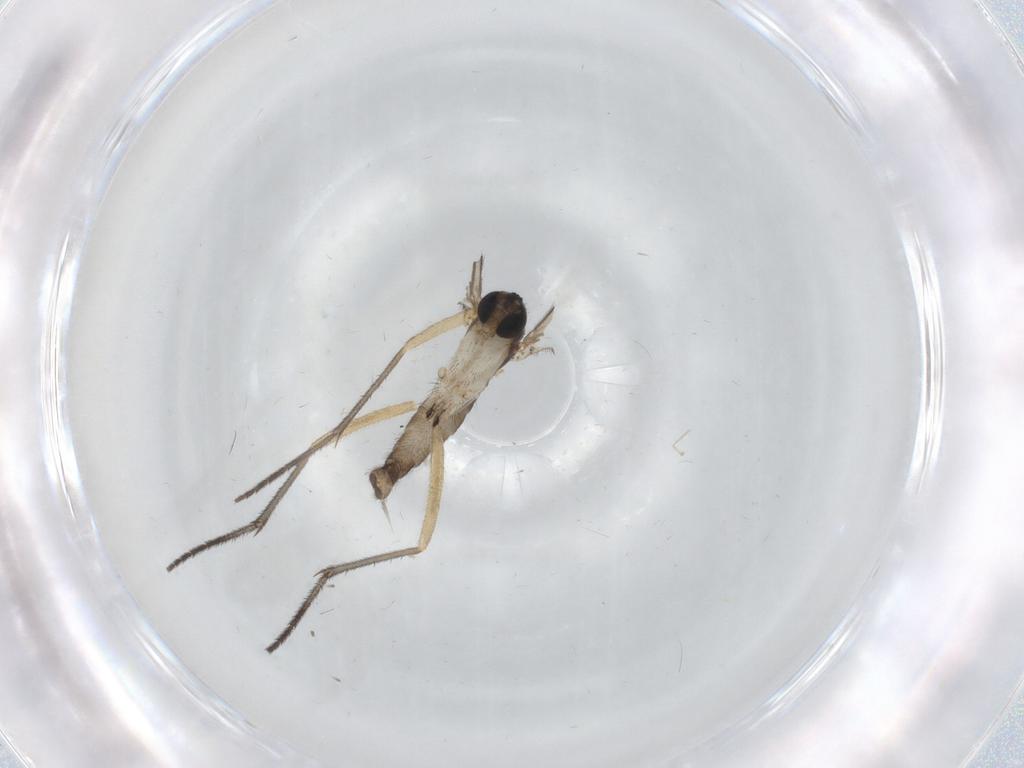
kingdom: Animalia
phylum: Arthropoda
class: Insecta
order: Diptera
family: Sciaridae
